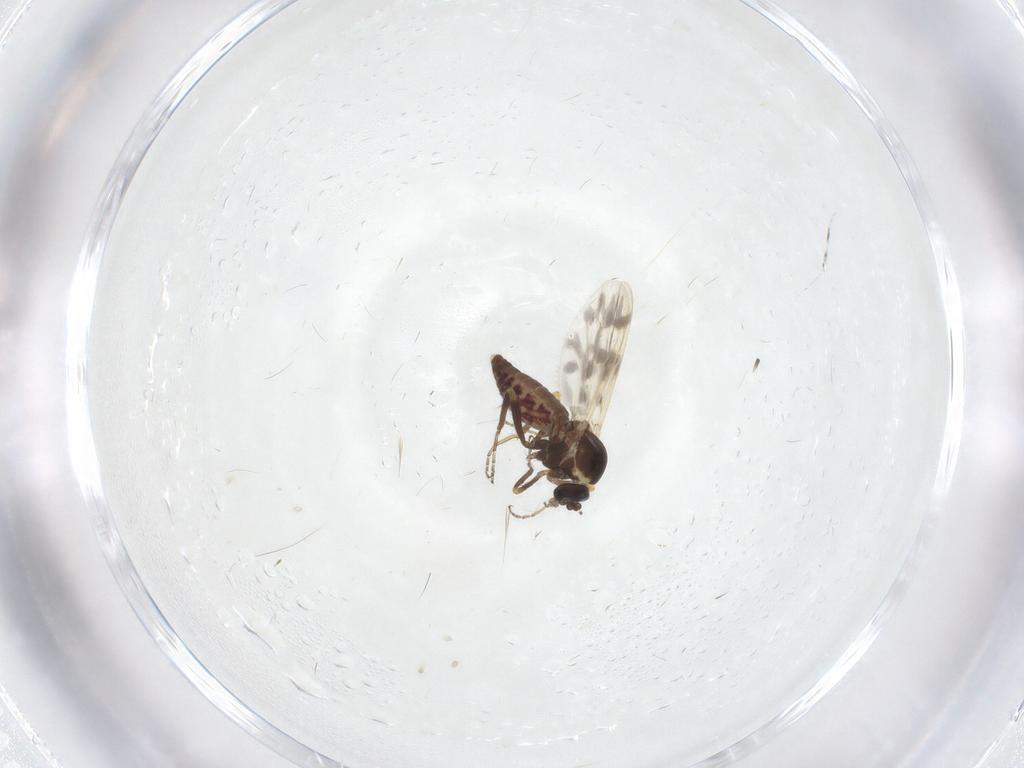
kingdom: Animalia
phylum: Arthropoda
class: Insecta
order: Diptera
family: Ceratopogonidae
